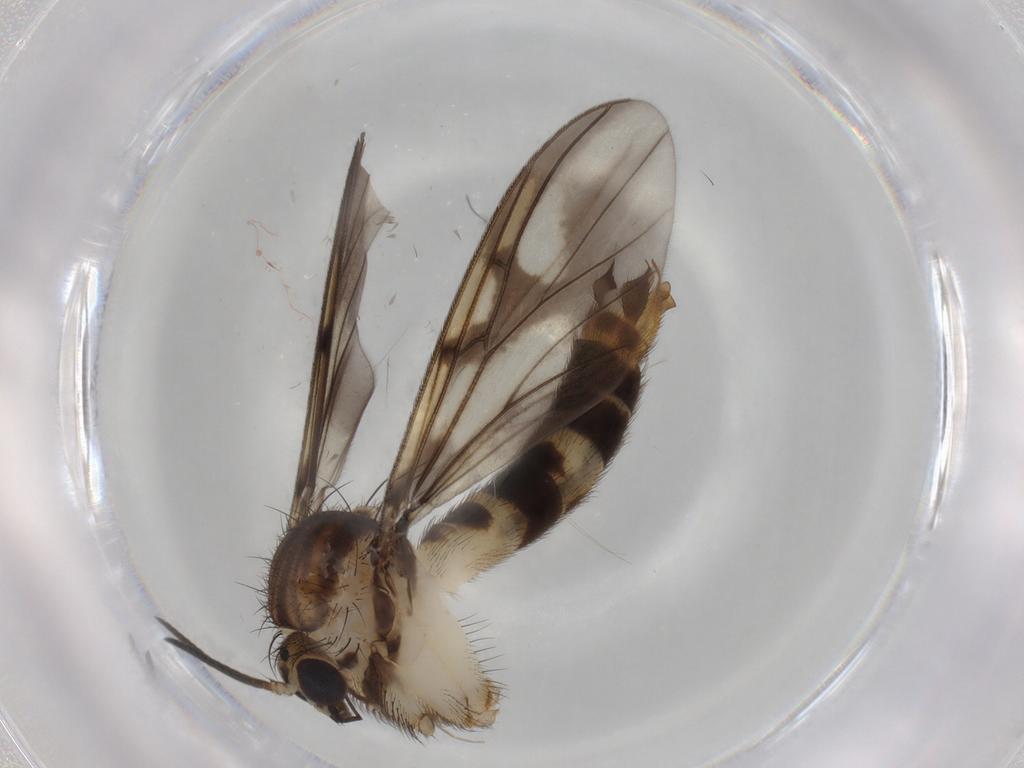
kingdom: Animalia
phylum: Arthropoda
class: Insecta
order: Diptera
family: Mycetophilidae
